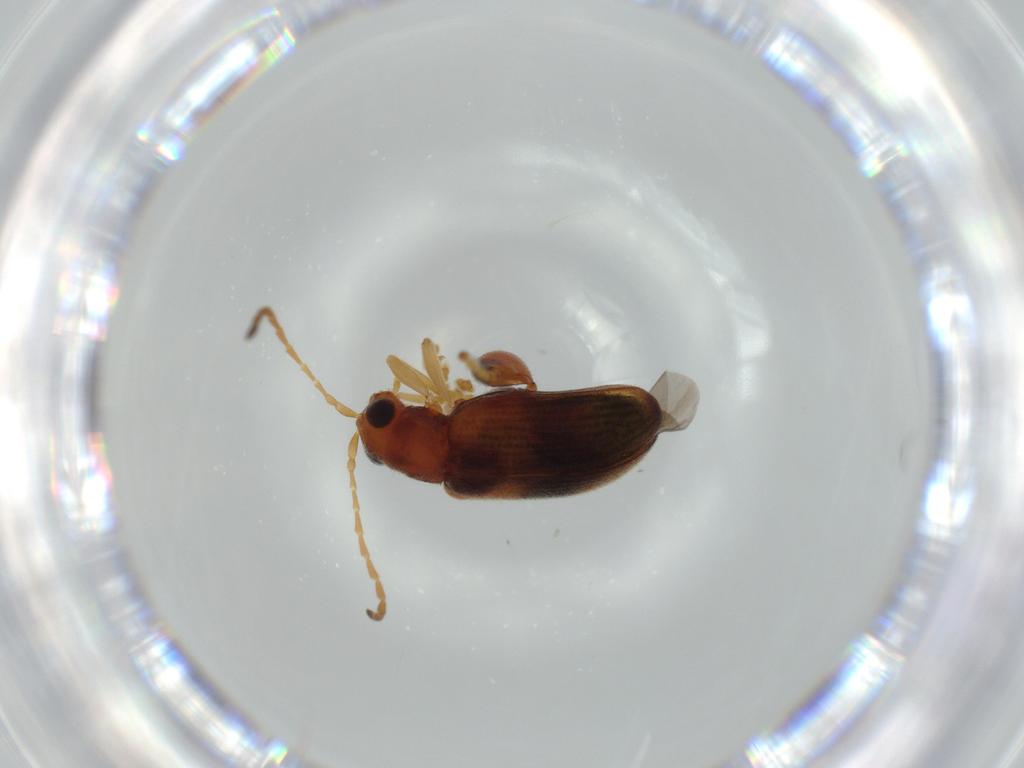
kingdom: Animalia
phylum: Arthropoda
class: Insecta
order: Coleoptera
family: Chrysomelidae
